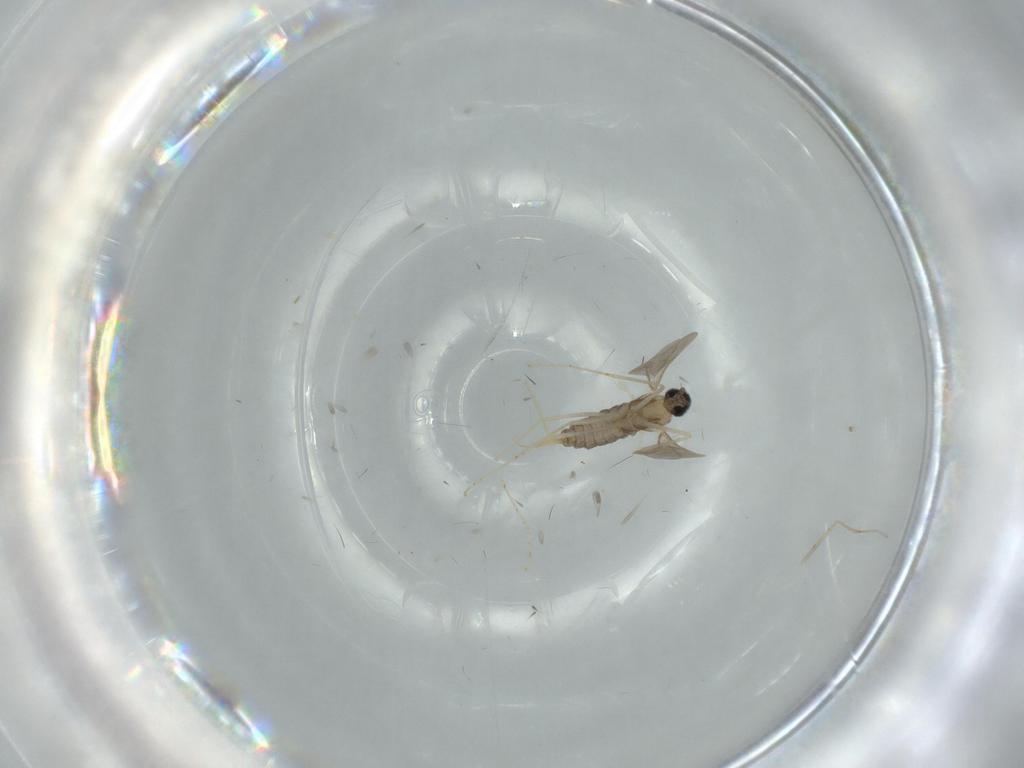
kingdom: Animalia
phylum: Arthropoda
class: Insecta
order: Diptera
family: Cecidomyiidae
